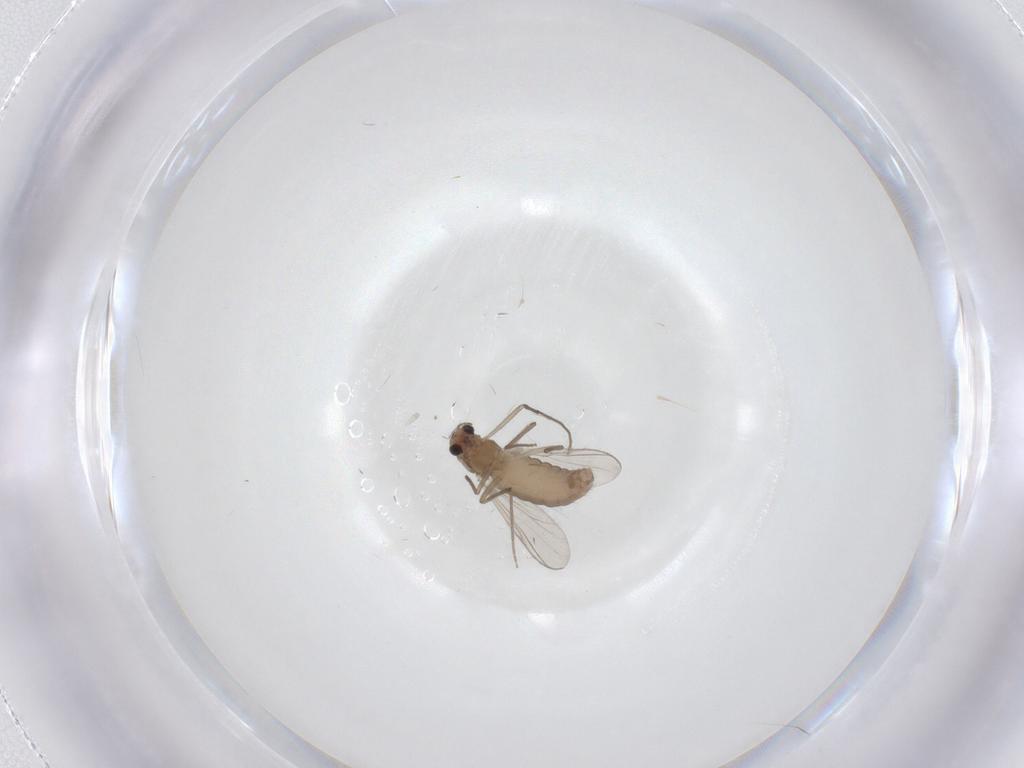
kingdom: Animalia
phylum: Arthropoda
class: Insecta
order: Diptera
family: Chironomidae
